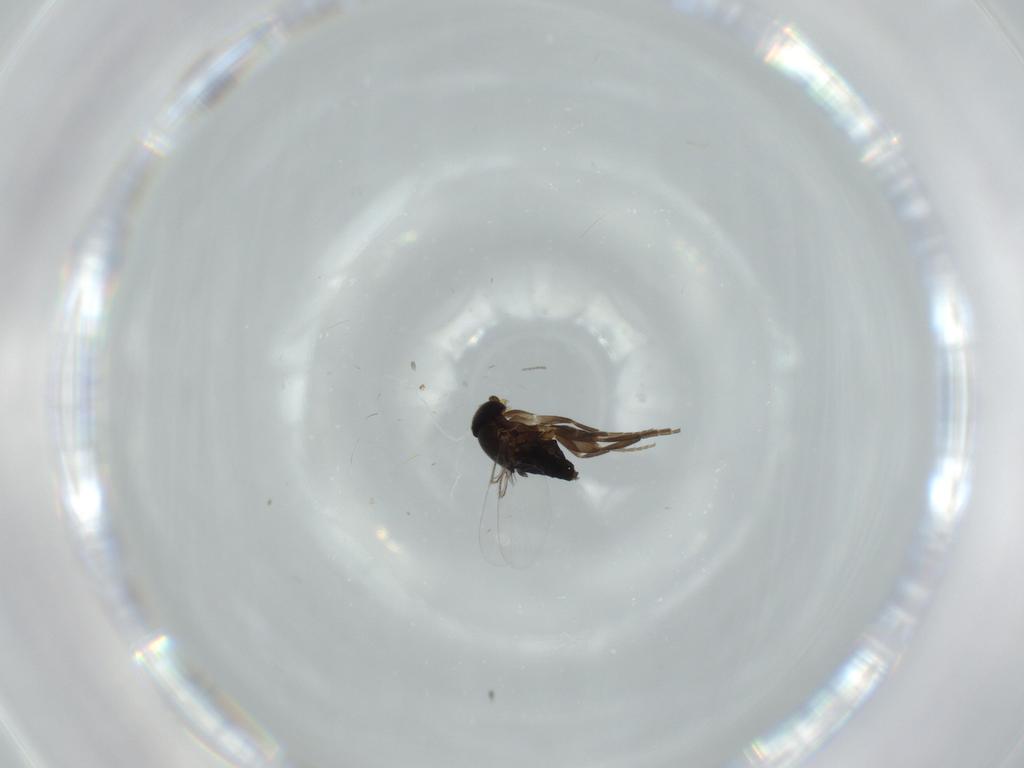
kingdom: Animalia
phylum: Arthropoda
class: Insecta
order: Diptera
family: Phoridae
